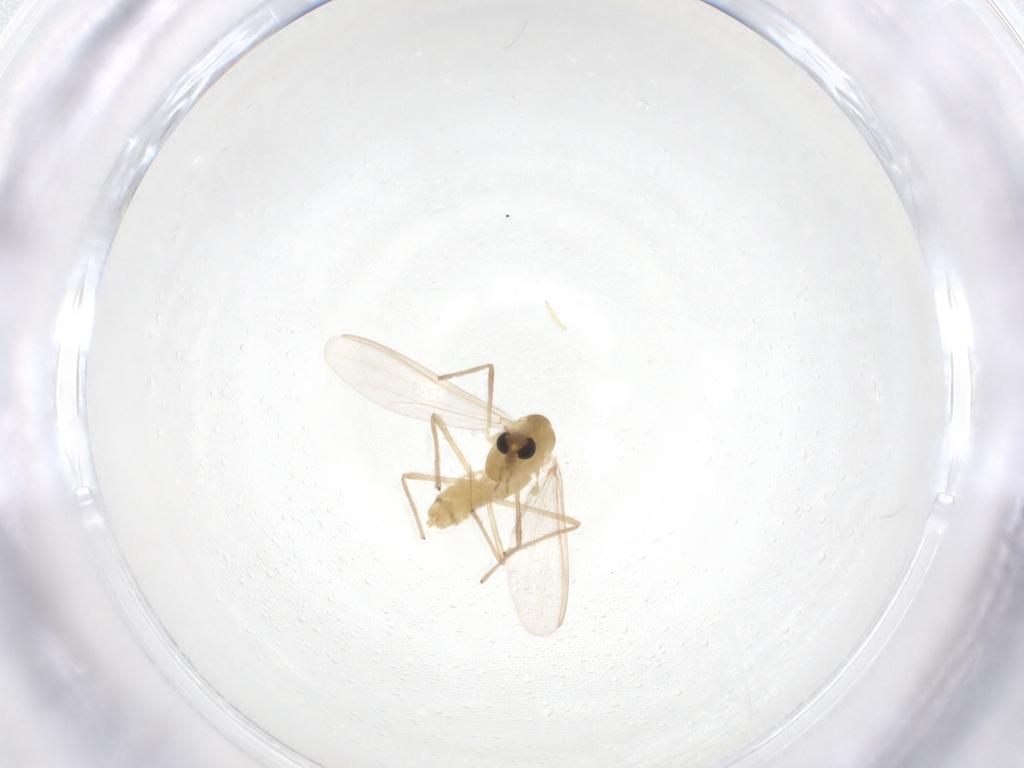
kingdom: Animalia
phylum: Arthropoda
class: Insecta
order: Diptera
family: Chironomidae
